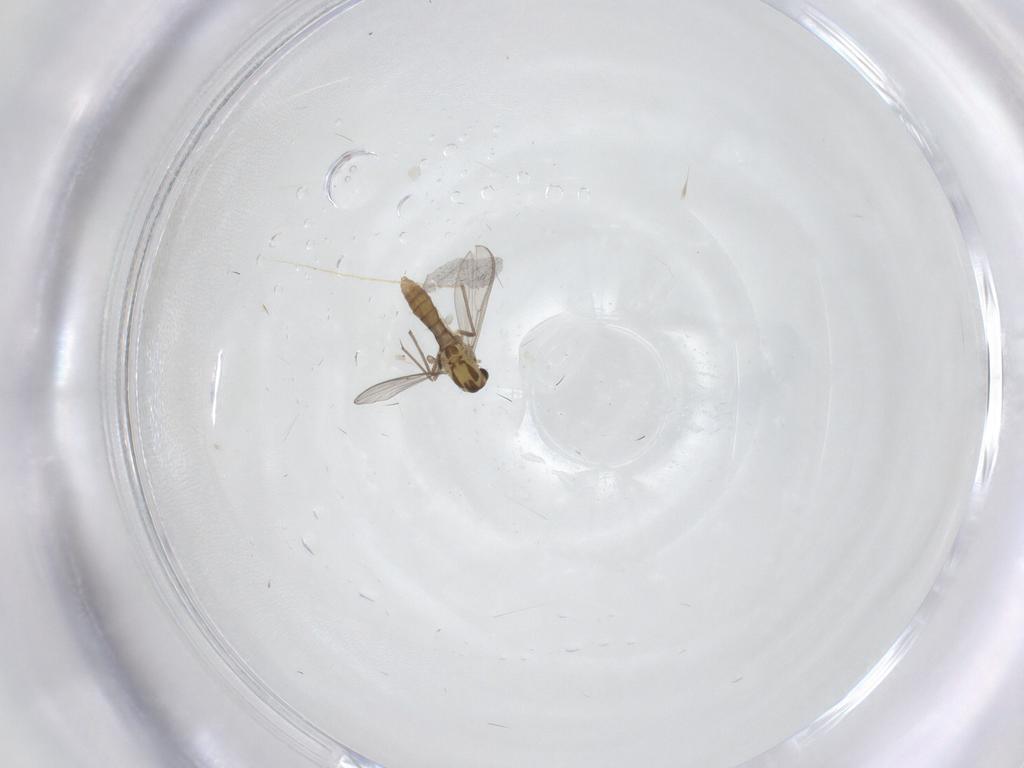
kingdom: Animalia
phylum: Arthropoda
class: Insecta
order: Diptera
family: Chironomidae
